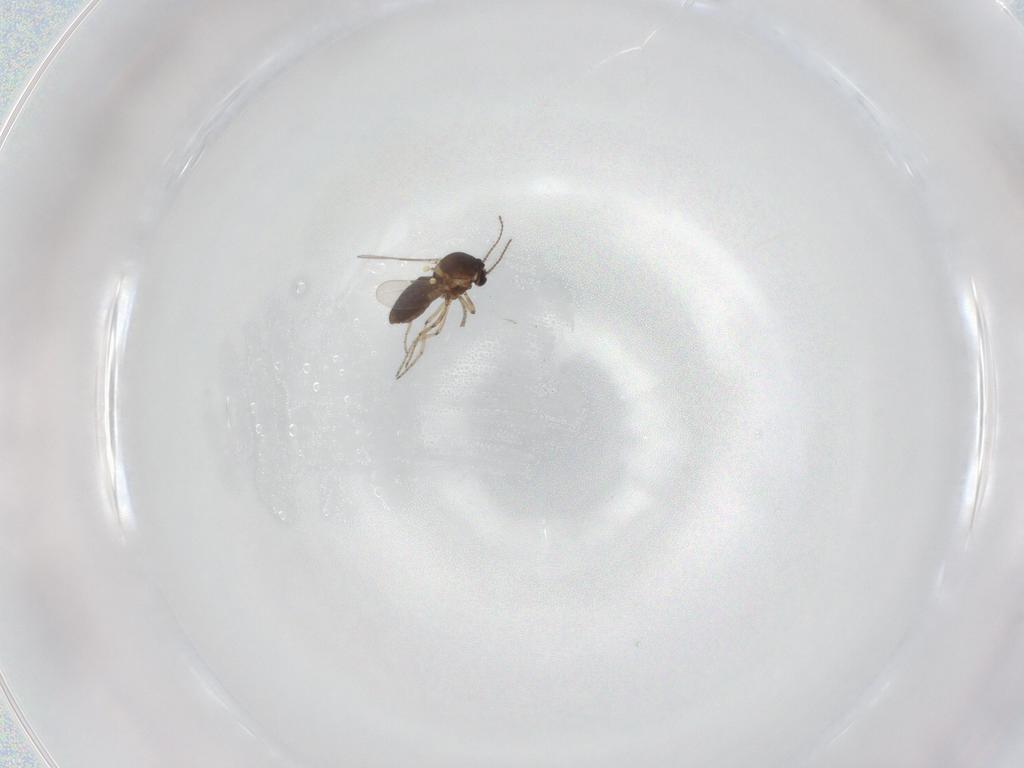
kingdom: Animalia
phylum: Arthropoda
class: Insecta
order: Diptera
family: Ceratopogonidae
